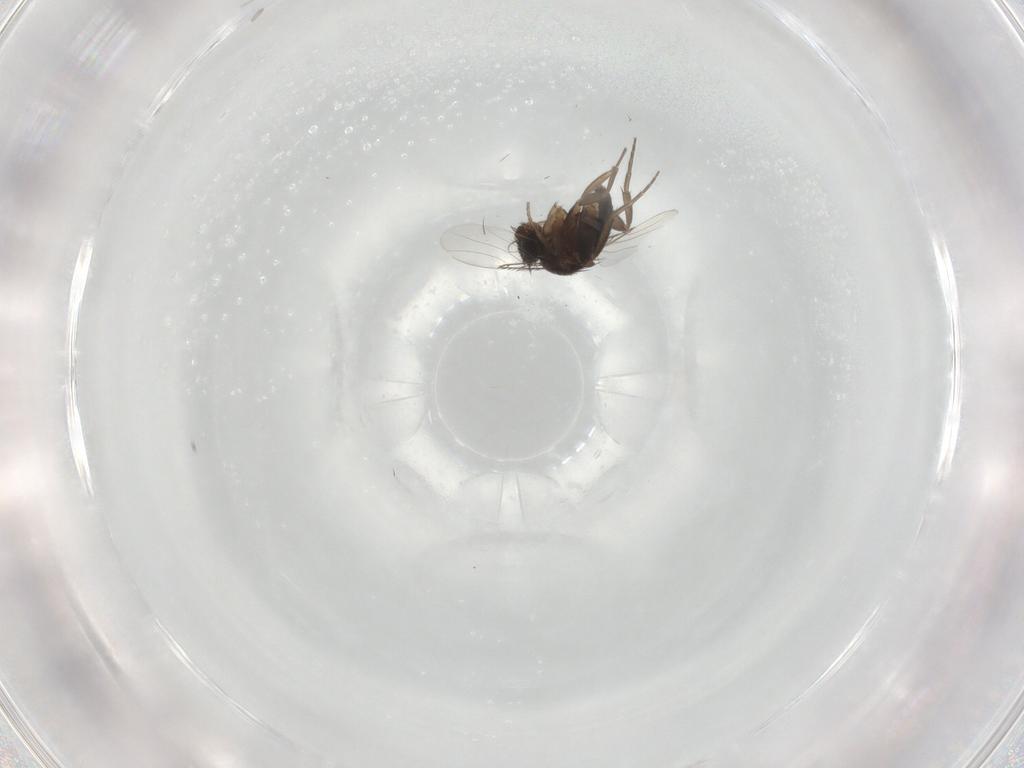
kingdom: Animalia
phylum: Arthropoda
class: Insecta
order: Diptera
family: Phoridae
